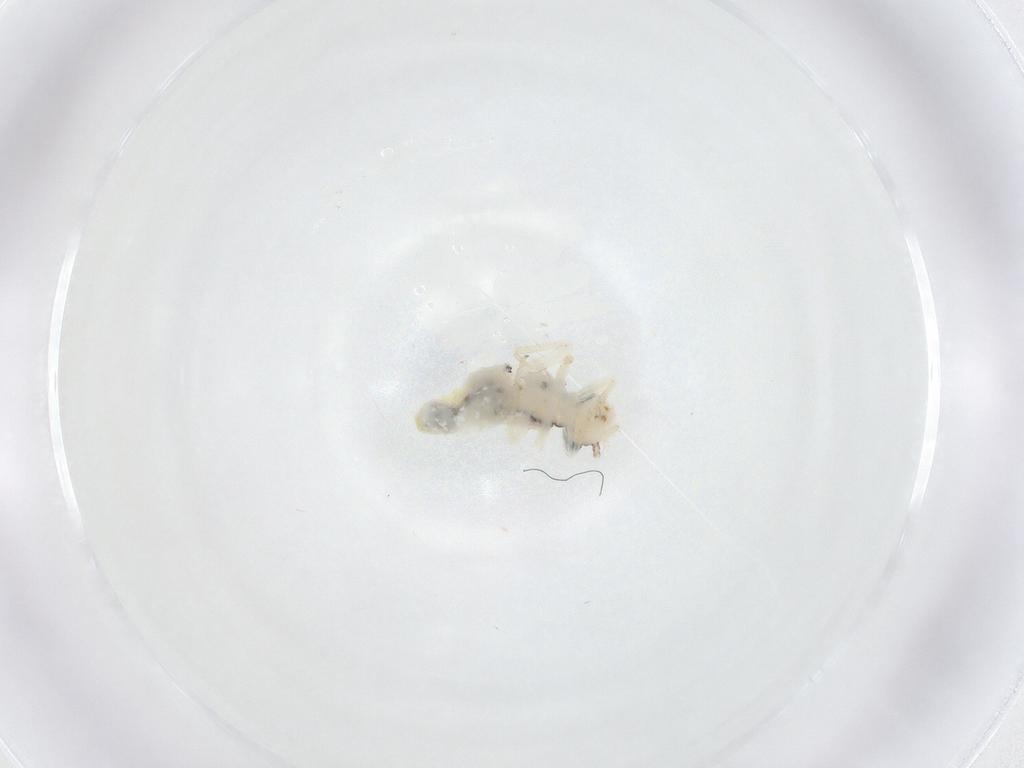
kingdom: Animalia
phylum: Arthropoda
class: Insecta
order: Psocodea
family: Pseudocaeciliidae
